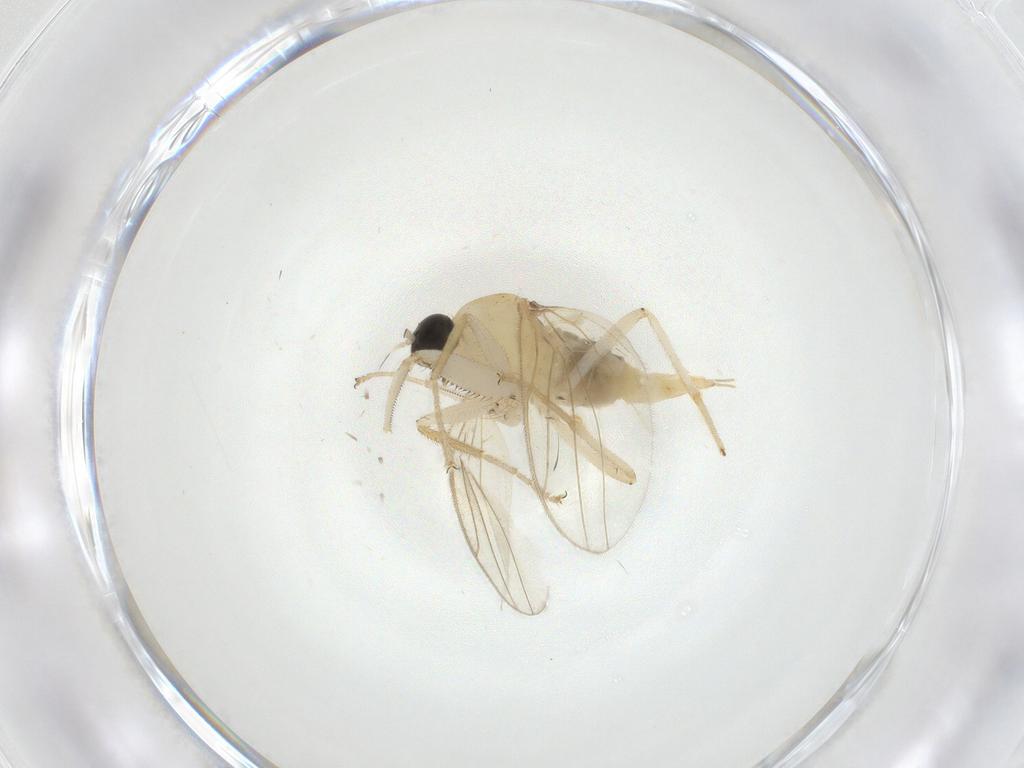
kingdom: Animalia
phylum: Arthropoda
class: Insecta
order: Diptera
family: Hybotidae
